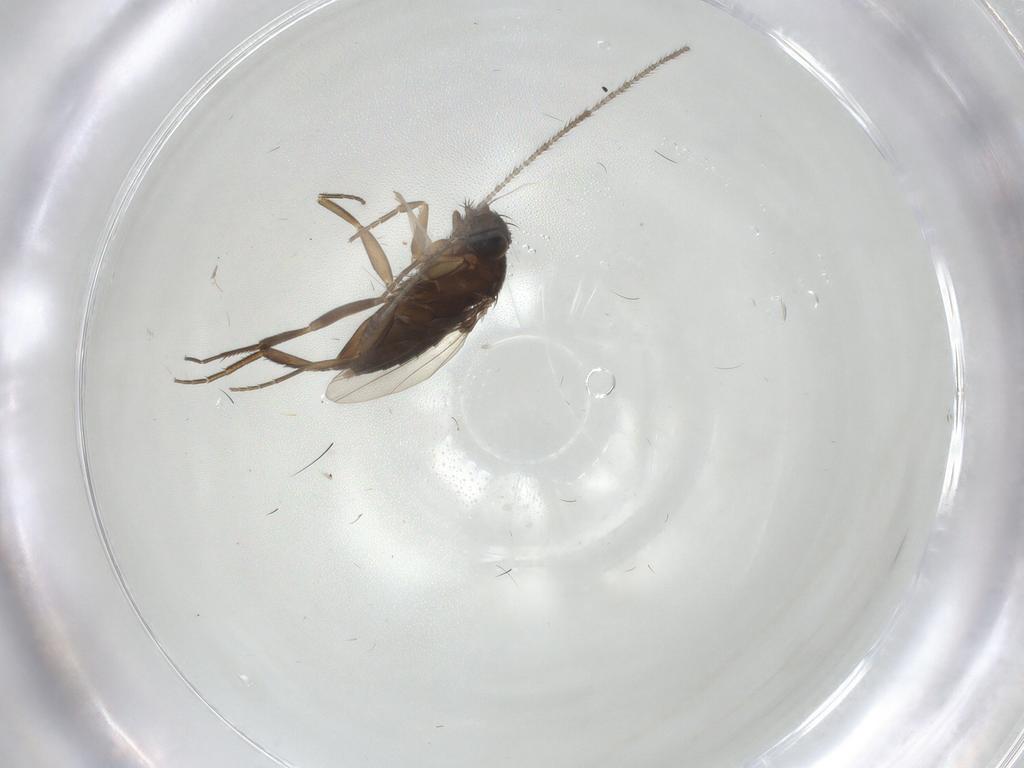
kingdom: Animalia
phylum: Arthropoda
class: Insecta
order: Diptera
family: Phoridae
